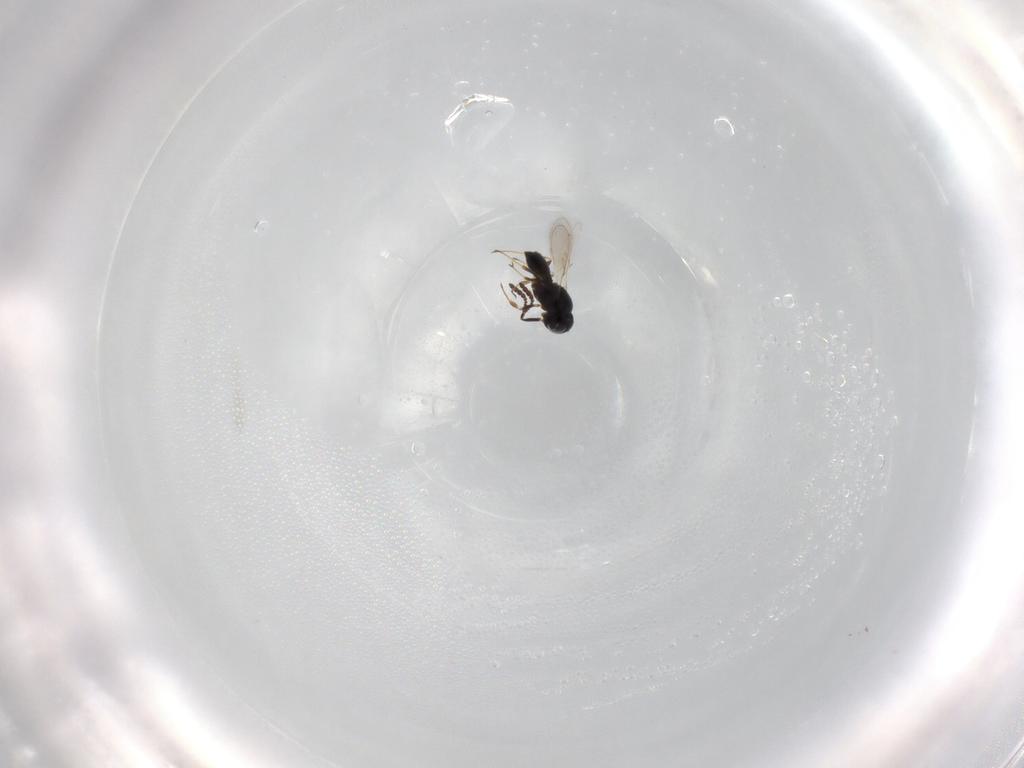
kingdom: Animalia
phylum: Arthropoda
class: Insecta
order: Hymenoptera
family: Scelionidae
